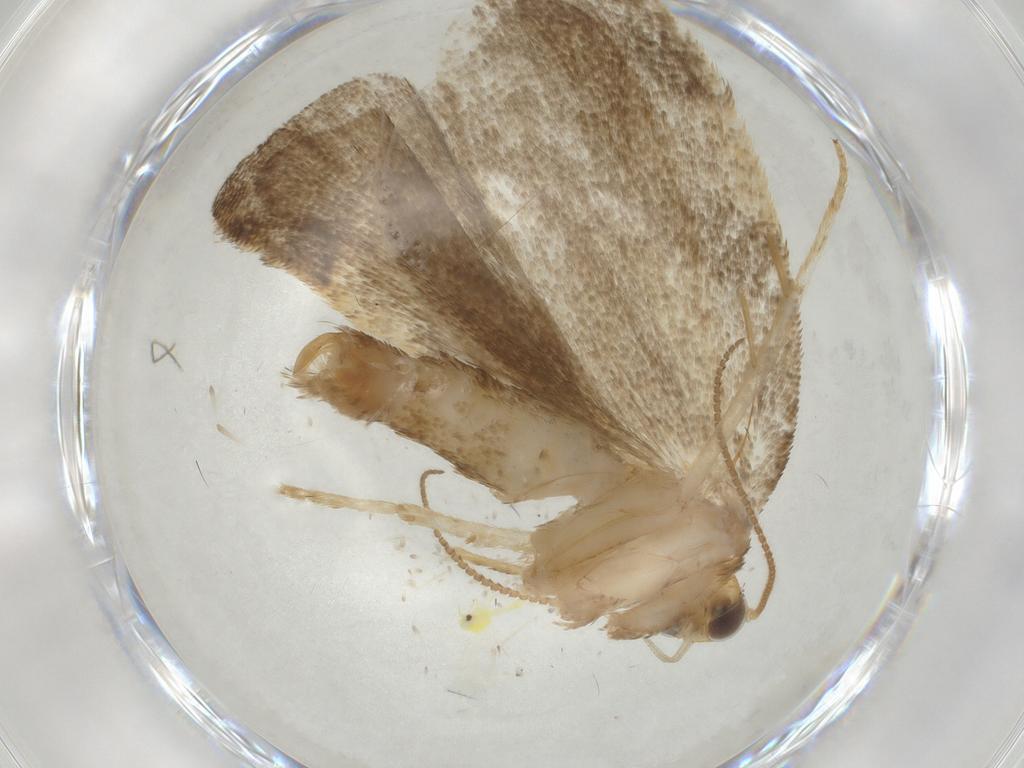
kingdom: Animalia
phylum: Arthropoda
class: Insecta
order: Lepidoptera
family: Tortricidae
